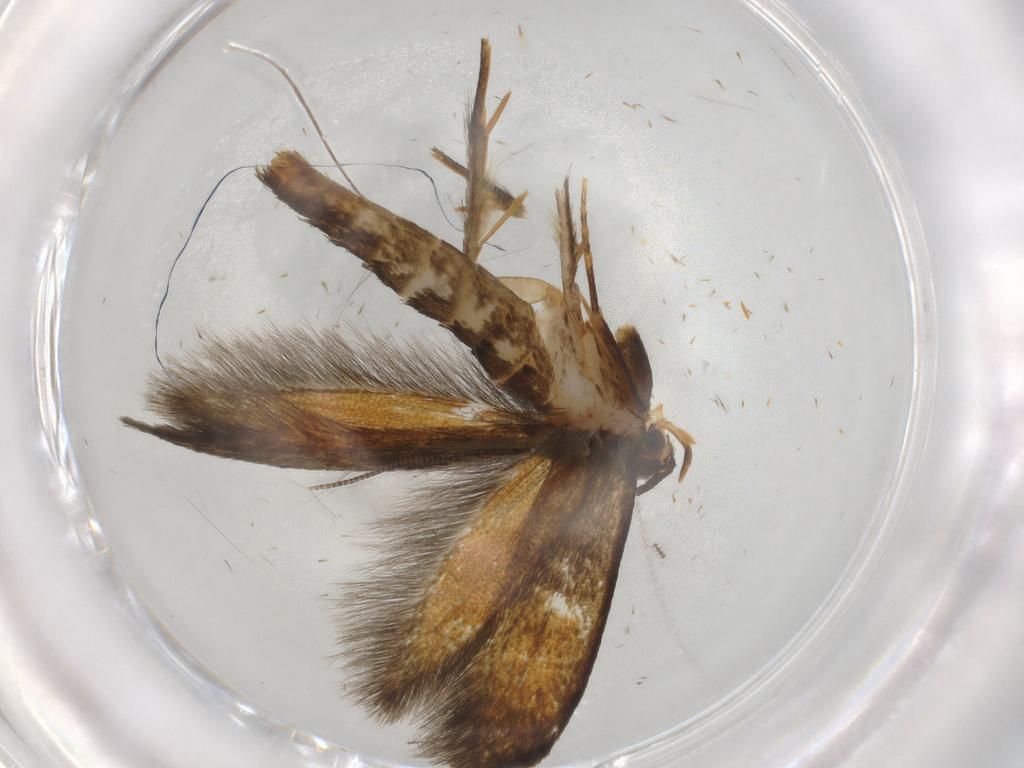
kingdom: Animalia
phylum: Arthropoda
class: Insecta
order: Lepidoptera
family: Tineidae
